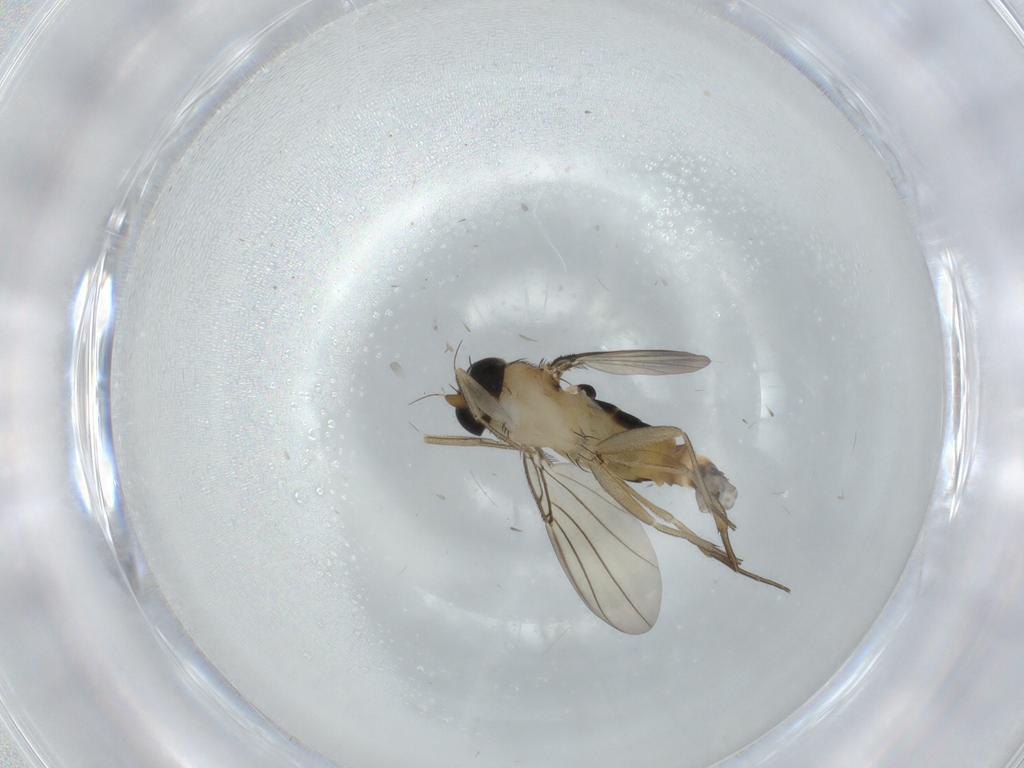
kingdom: Animalia
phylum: Arthropoda
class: Insecta
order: Diptera
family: Phoridae
